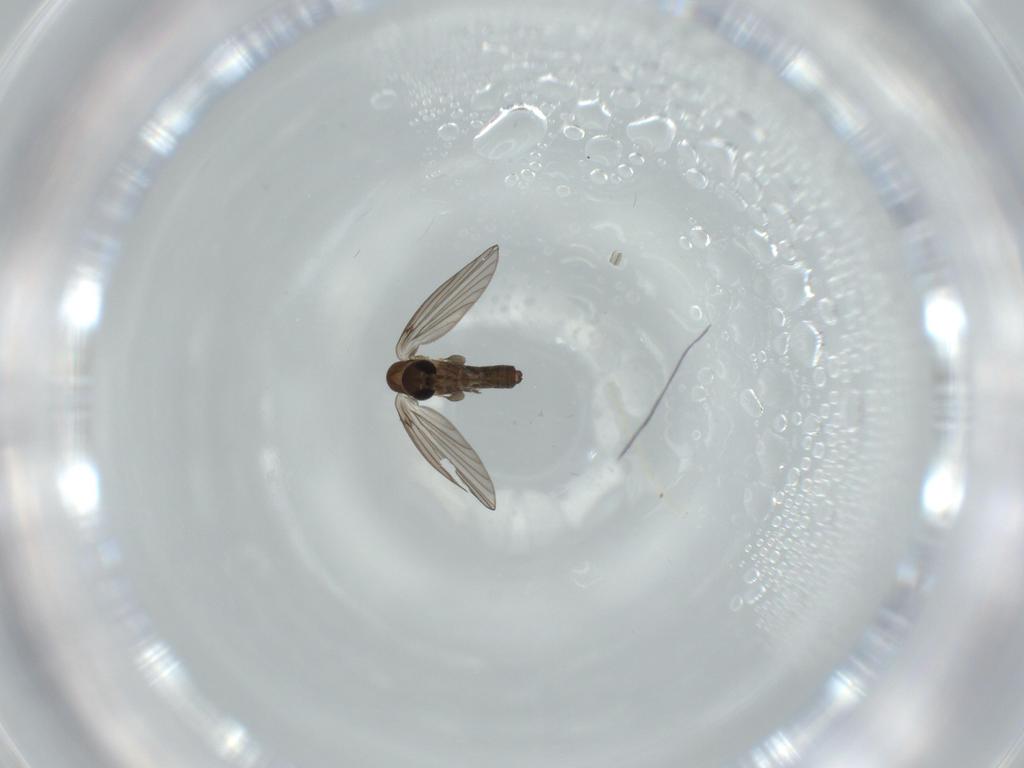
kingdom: Animalia
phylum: Arthropoda
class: Insecta
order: Diptera
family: Psychodidae
